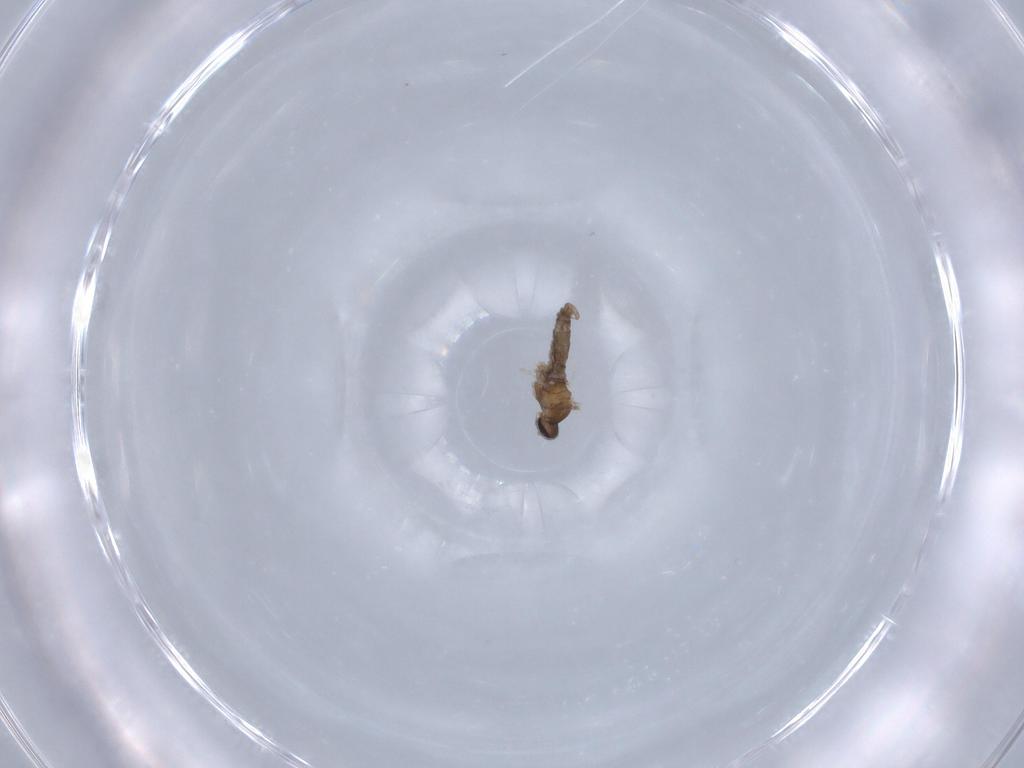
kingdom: Animalia
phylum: Arthropoda
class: Insecta
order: Diptera
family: Cecidomyiidae
